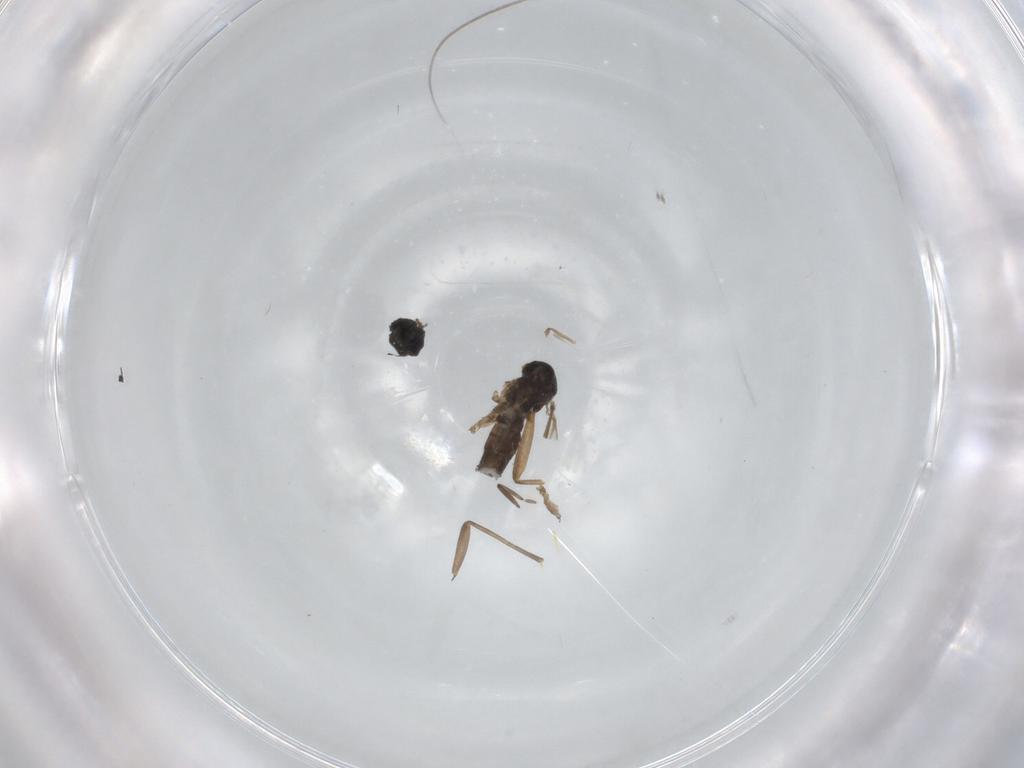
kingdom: Animalia
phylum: Arthropoda
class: Insecta
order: Diptera
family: Sciaridae
